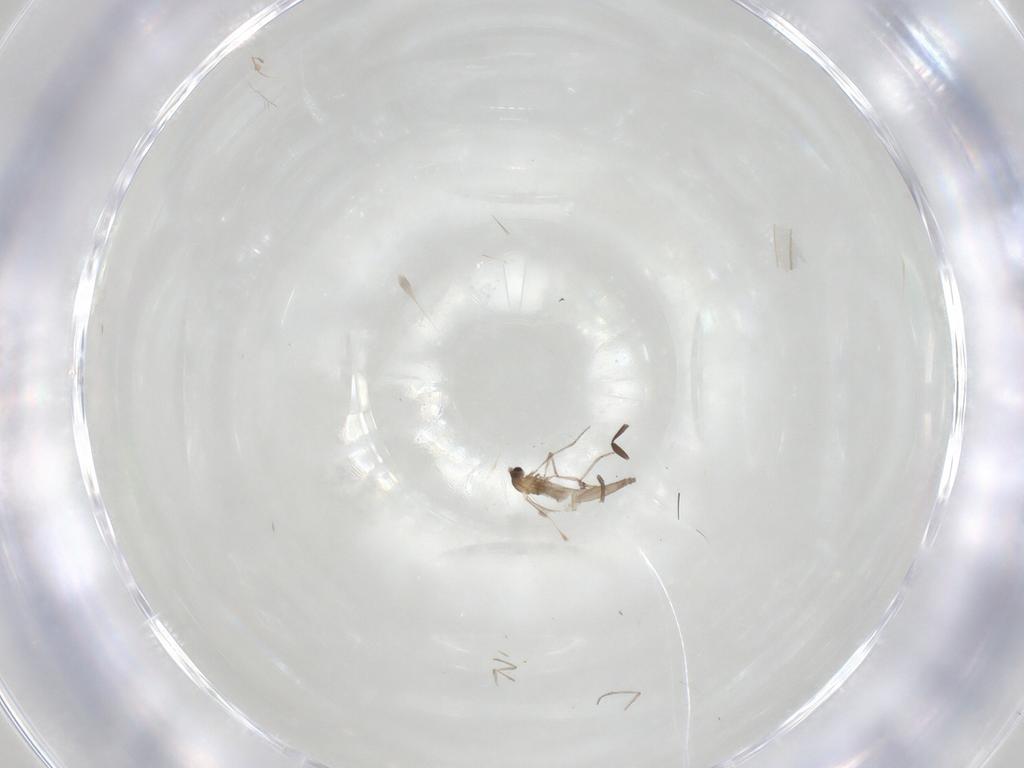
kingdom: Animalia
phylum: Arthropoda
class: Insecta
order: Diptera
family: Cecidomyiidae
